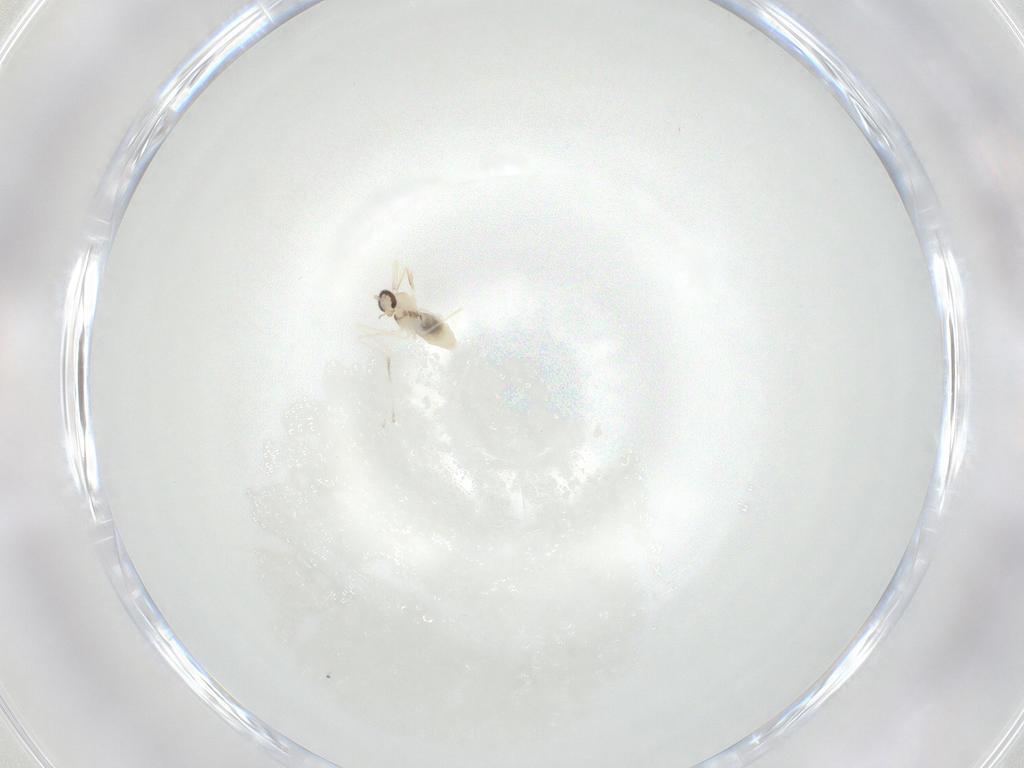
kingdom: Animalia
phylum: Arthropoda
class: Insecta
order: Diptera
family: Cecidomyiidae
